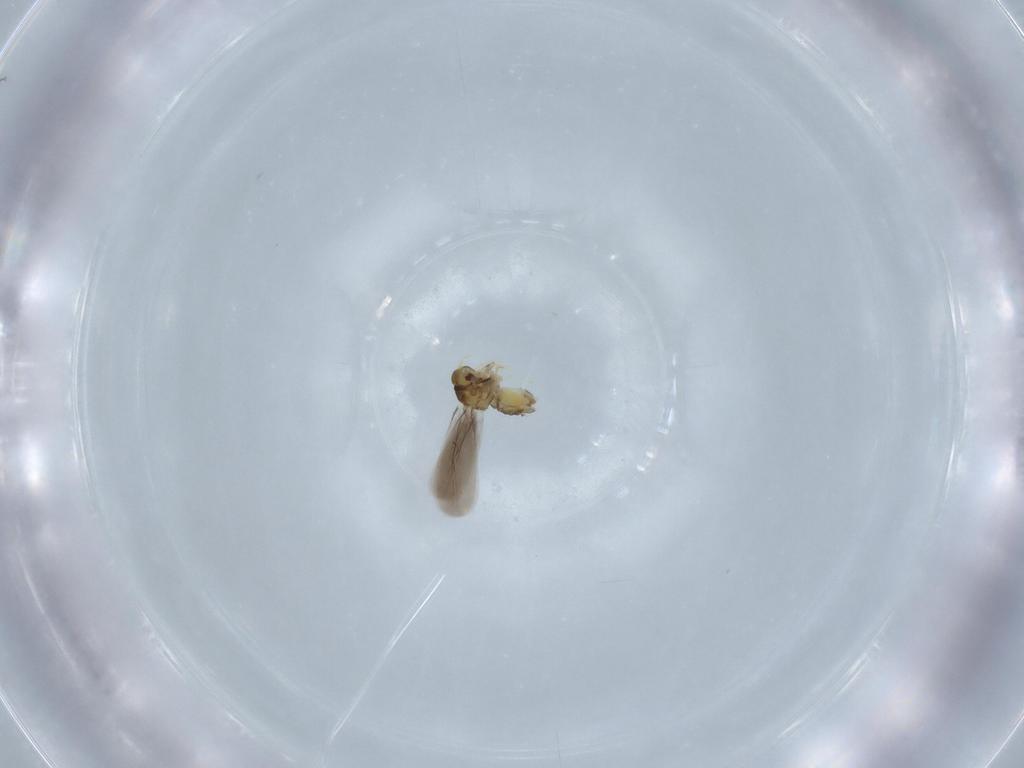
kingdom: Animalia
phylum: Arthropoda
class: Insecta
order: Hemiptera
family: Aleyrodidae
